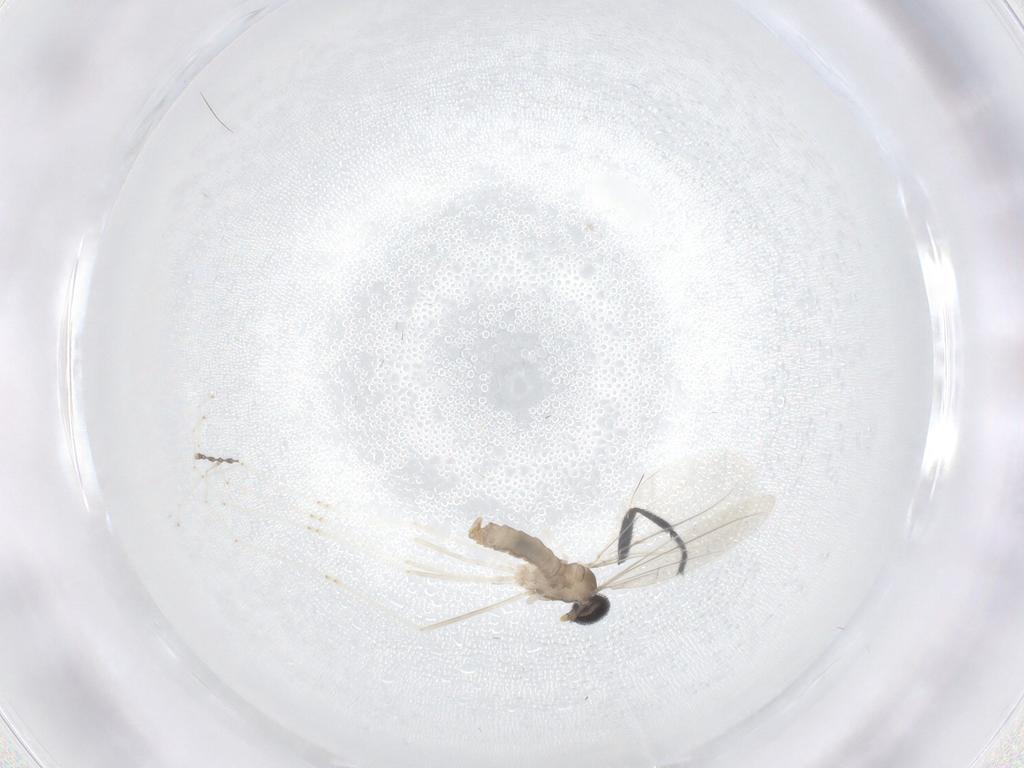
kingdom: Animalia
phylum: Arthropoda
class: Insecta
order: Diptera
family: Cecidomyiidae
